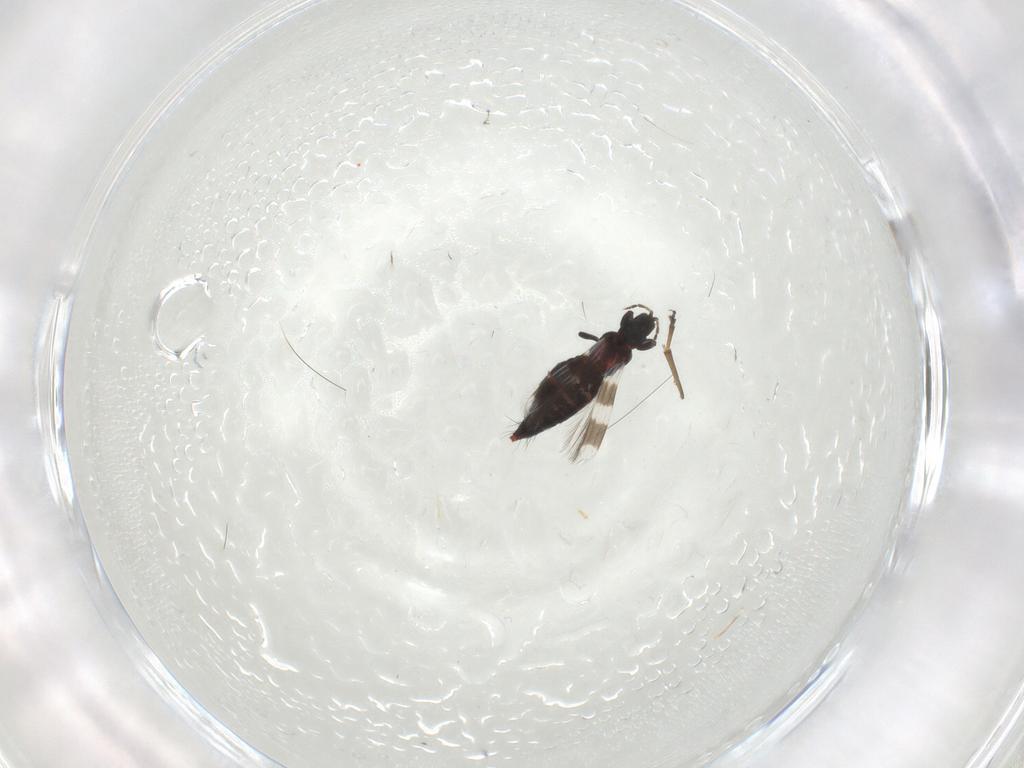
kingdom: Animalia
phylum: Arthropoda
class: Insecta
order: Thysanoptera
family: Aeolothripidae
